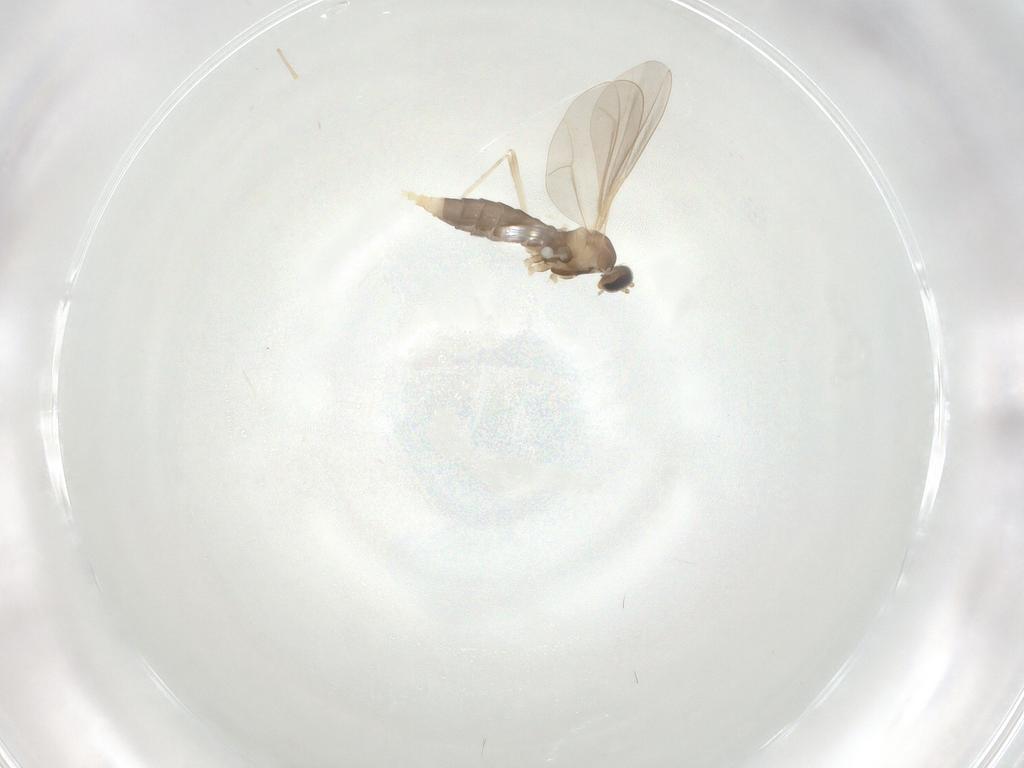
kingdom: Animalia
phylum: Arthropoda
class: Insecta
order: Diptera
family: Cecidomyiidae
